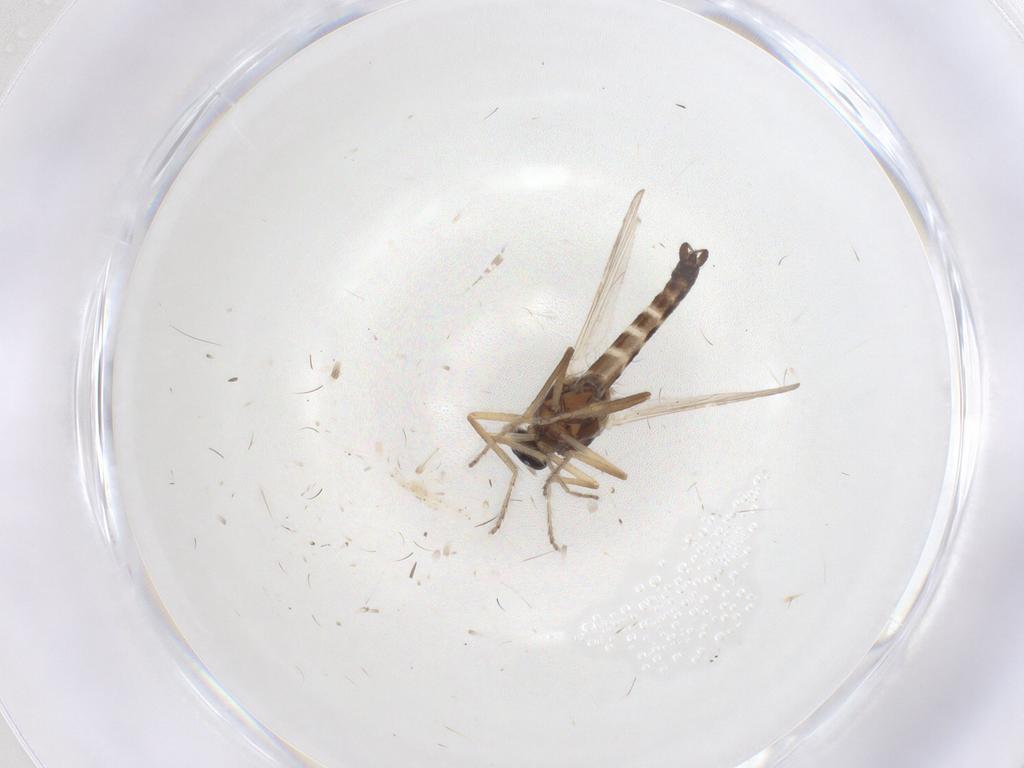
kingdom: Animalia
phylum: Arthropoda
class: Insecta
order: Diptera
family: Ceratopogonidae
